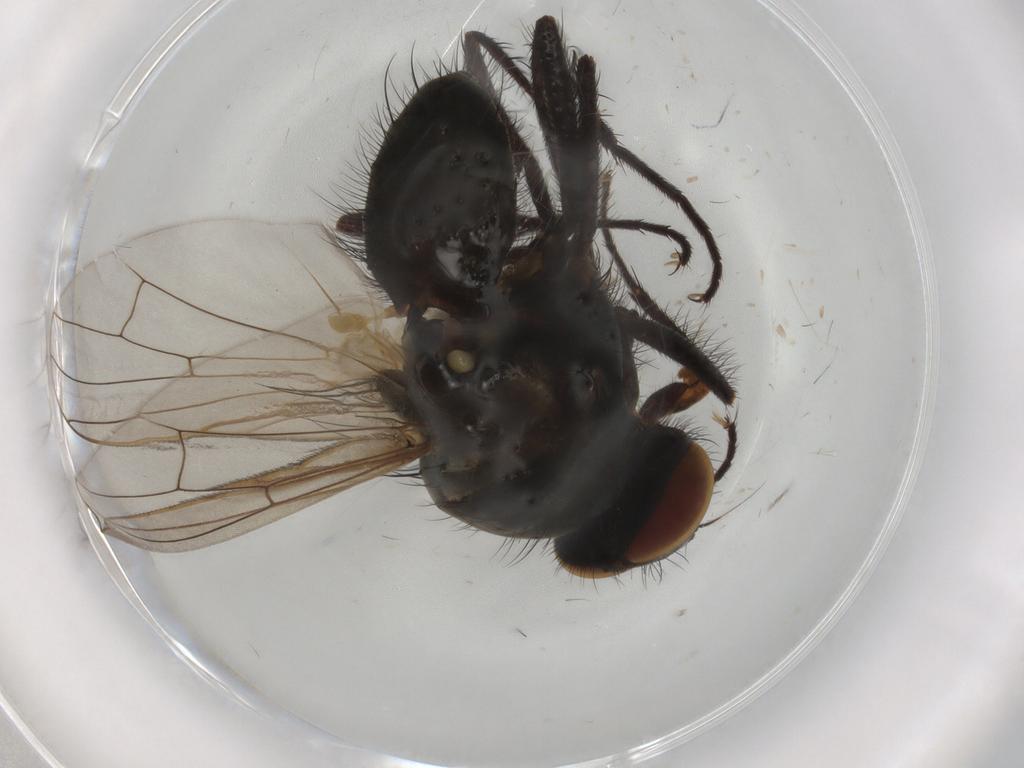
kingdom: Animalia
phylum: Arthropoda
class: Insecta
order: Diptera
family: Anthomyiidae
